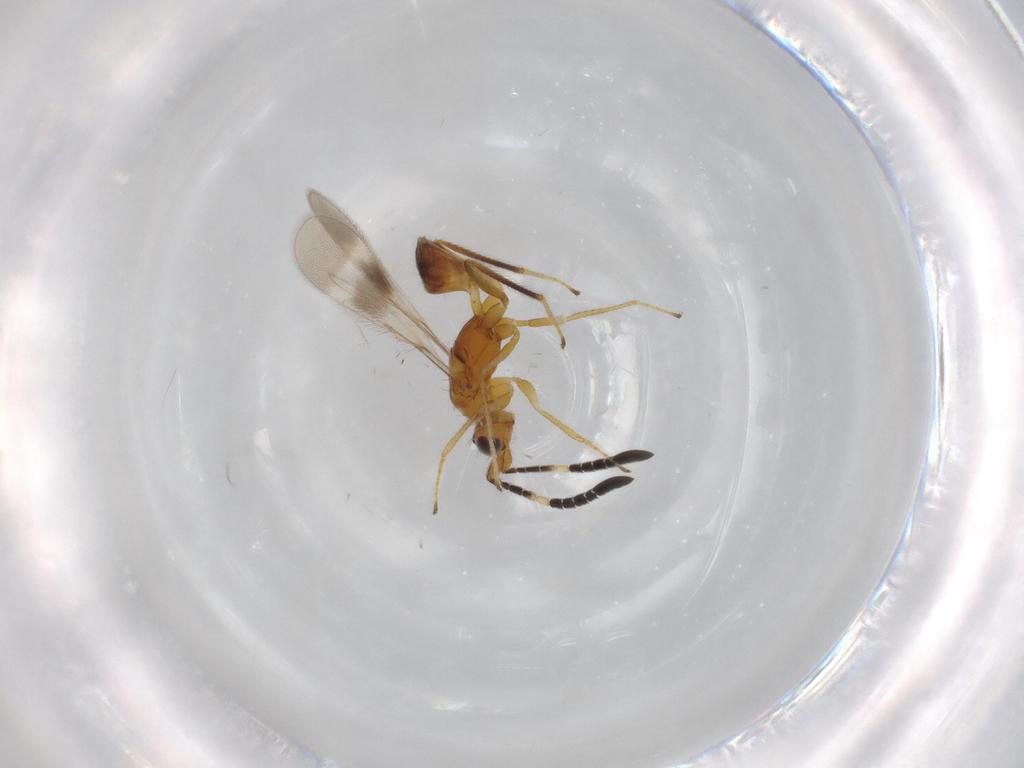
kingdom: Animalia
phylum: Arthropoda
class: Insecta
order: Hymenoptera
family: Mymaridae
